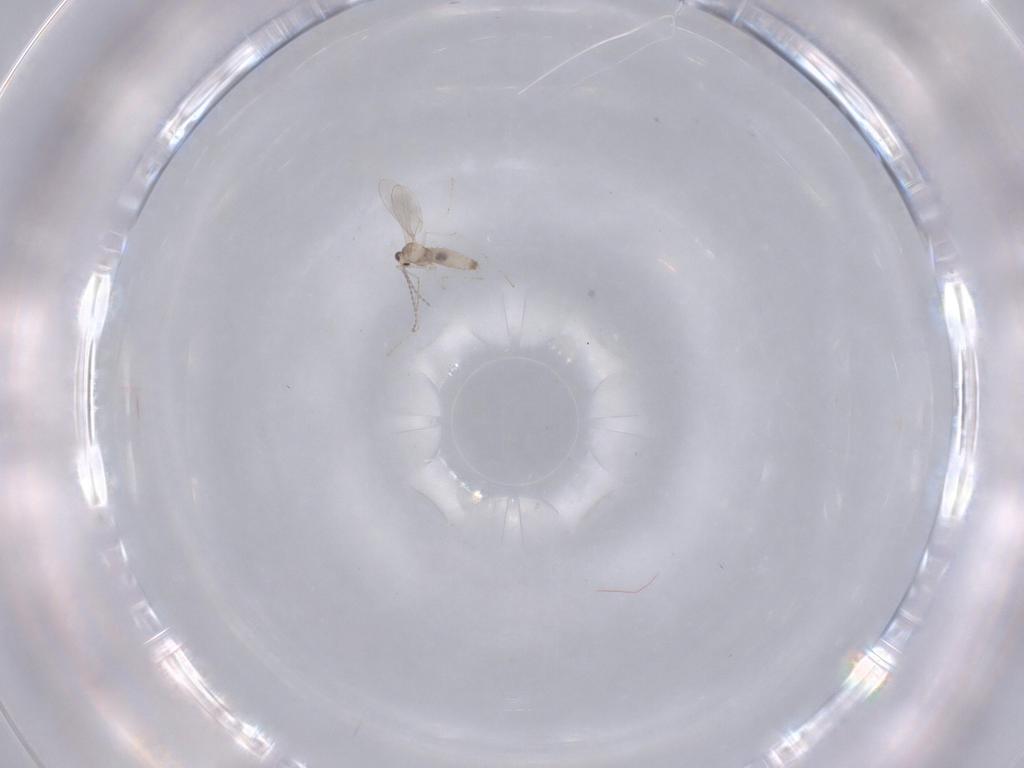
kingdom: Animalia
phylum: Arthropoda
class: Insecta
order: Diptera
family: Cecidomyiidae
